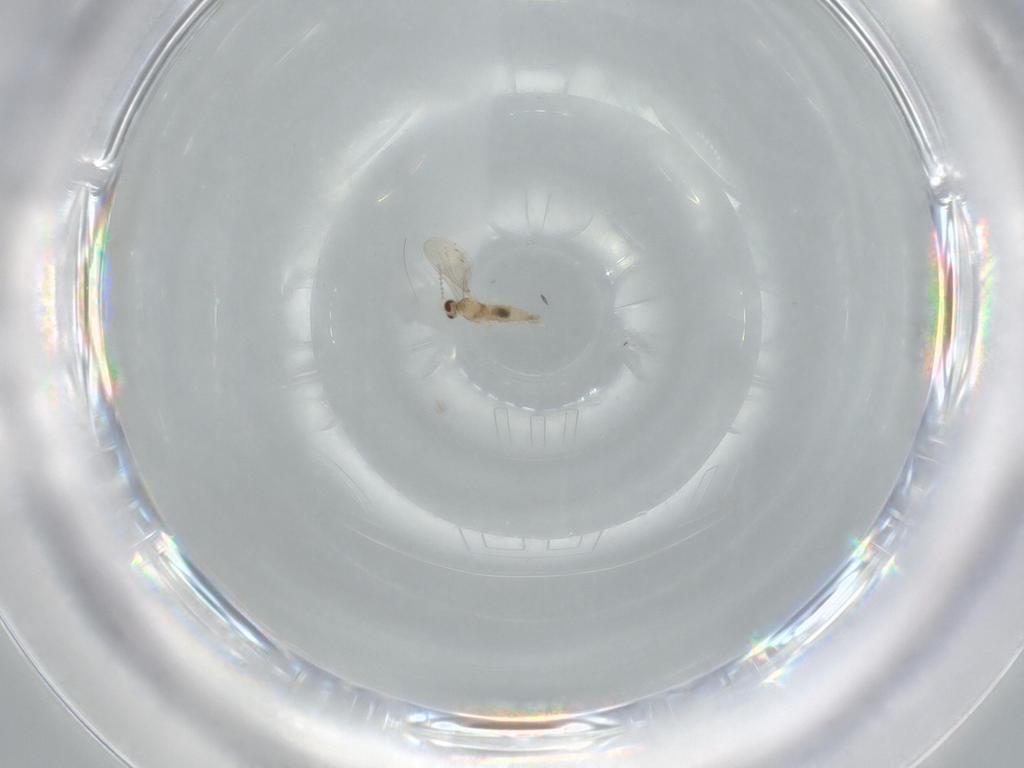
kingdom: Animalia
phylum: Arthropoda
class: Insecta
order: Diptera
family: Cecidomyiidae
